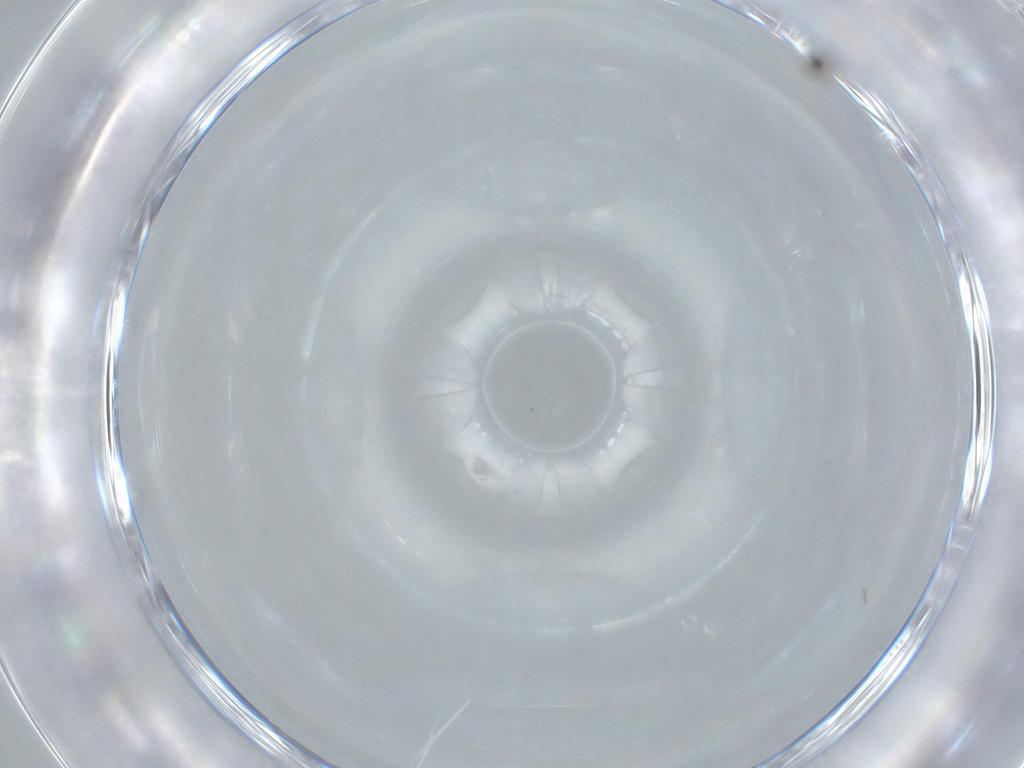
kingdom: Animalia
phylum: Arthropoda
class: Insecta
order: Hymenoptera
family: Mymaridae
